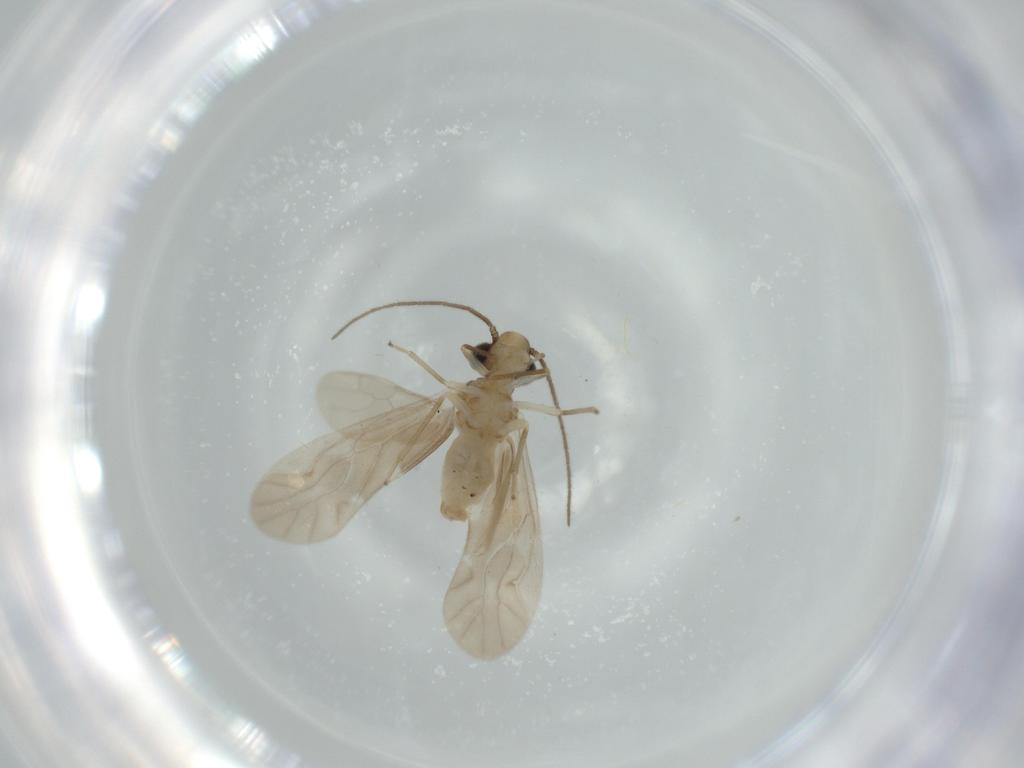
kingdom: Animalia
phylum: Arthropoda
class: Insecta
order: Psocodea
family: Caeciliusidae
